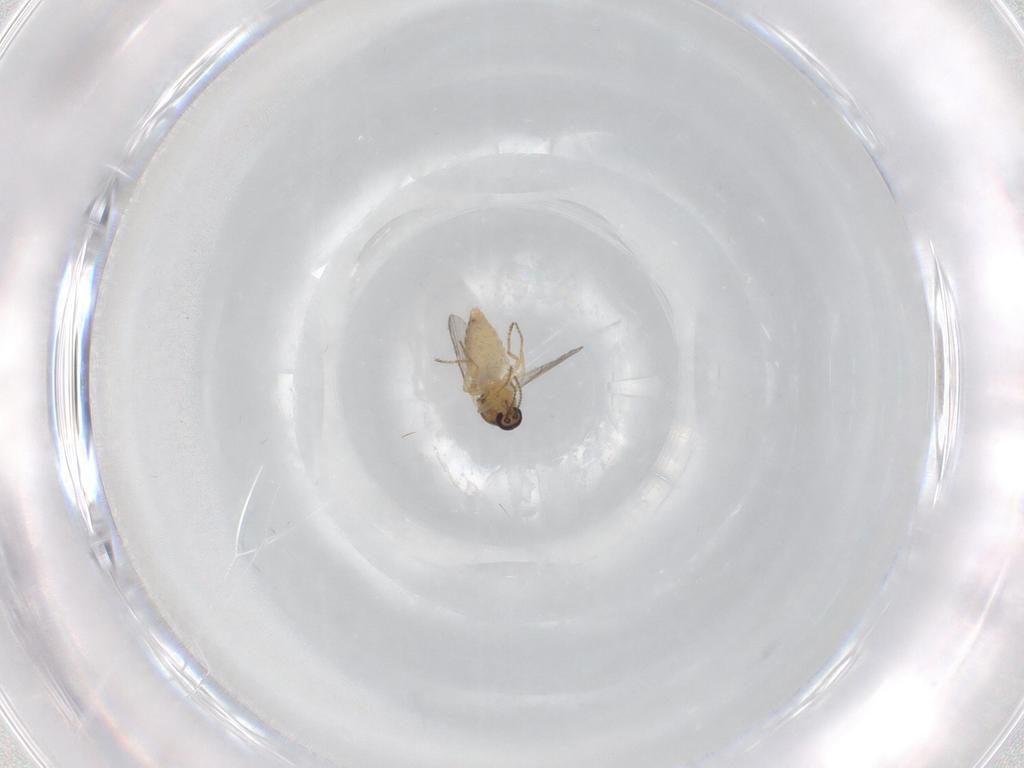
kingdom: Animalia
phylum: Arthropoda
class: Insecta
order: Diptera
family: Ceratopogonidae
